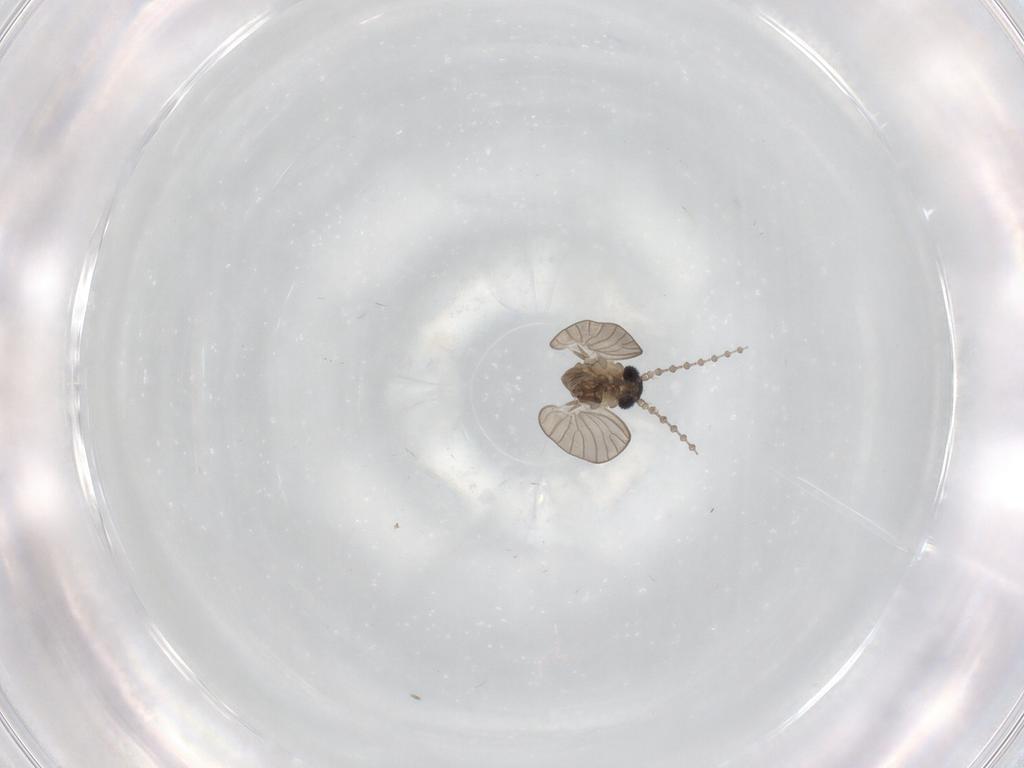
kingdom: Animalia
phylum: Arthropoda
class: Insecta
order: Diptera
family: Psychodidae
